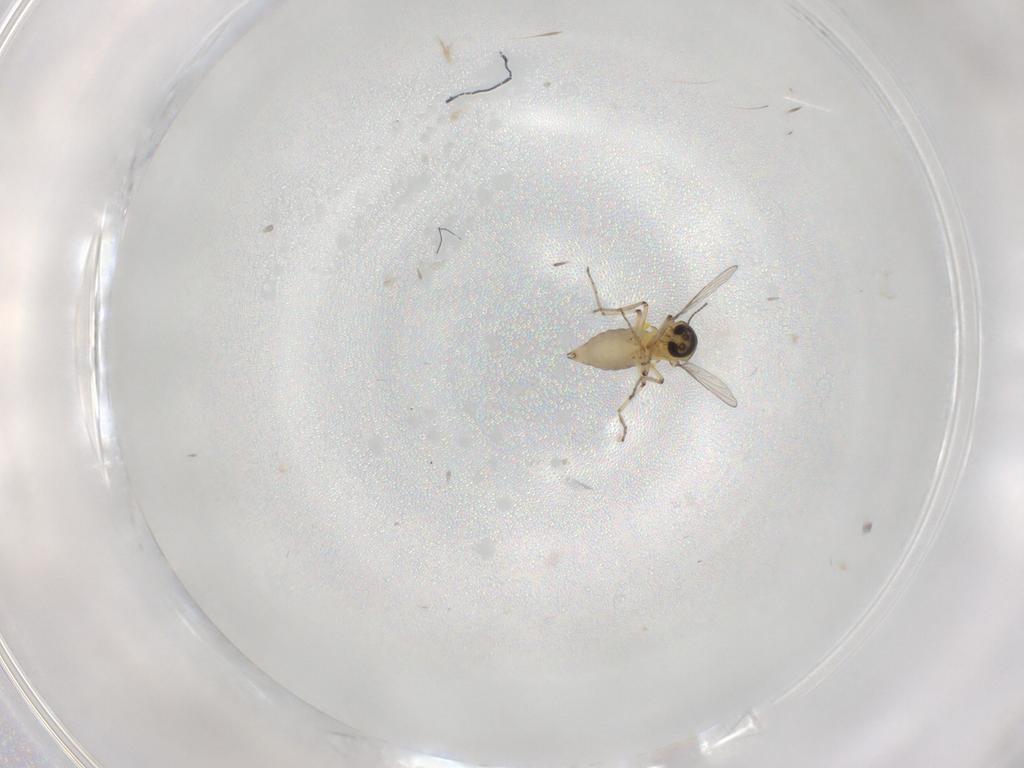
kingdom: Animalia
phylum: Arthropoda
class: Insecta
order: Diptera
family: Ceratopogonidae
